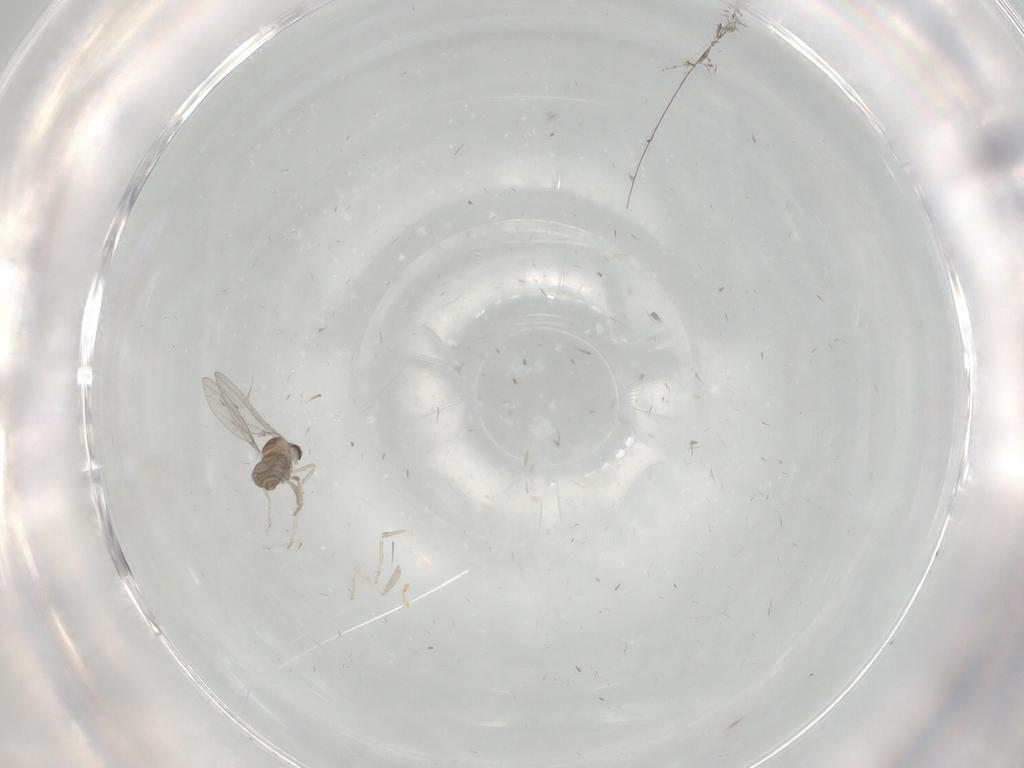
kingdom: Animalia
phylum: Arthropoda
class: Insecta
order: Diptera
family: Cecidomyiidae
